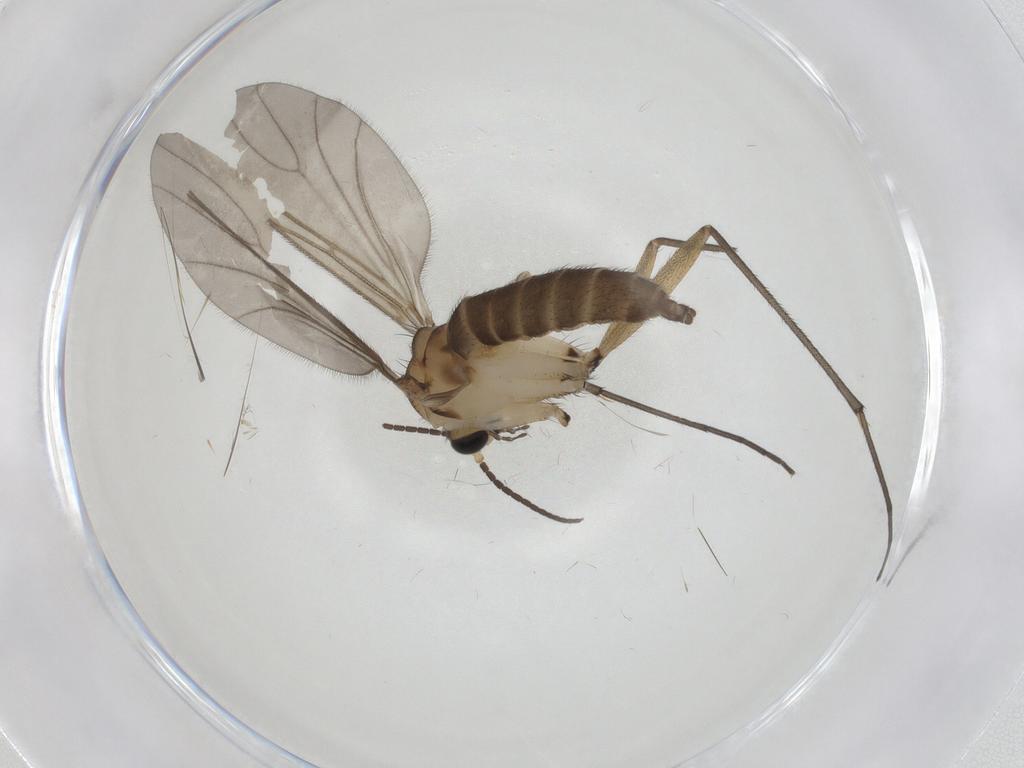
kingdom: Animalia
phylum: Arthropoda
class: Insecta
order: Diptera
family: Sciaridae
